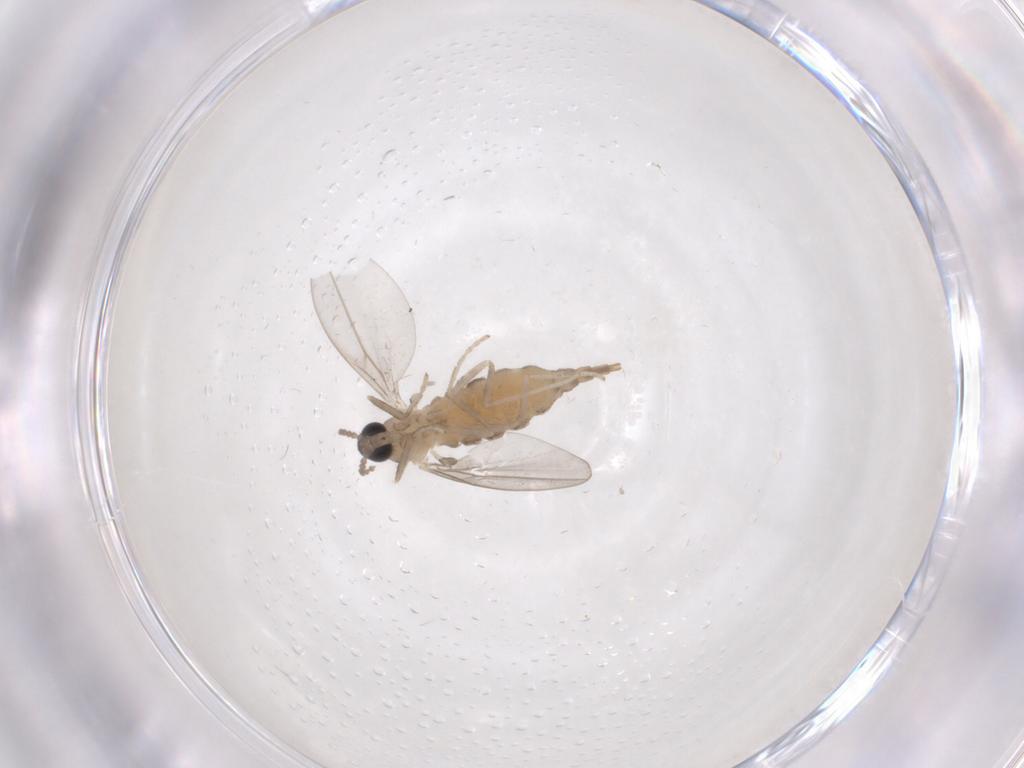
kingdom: Animalia
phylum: Arthropoda
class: Insecta
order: Diptera
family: Cecidomyiidae
